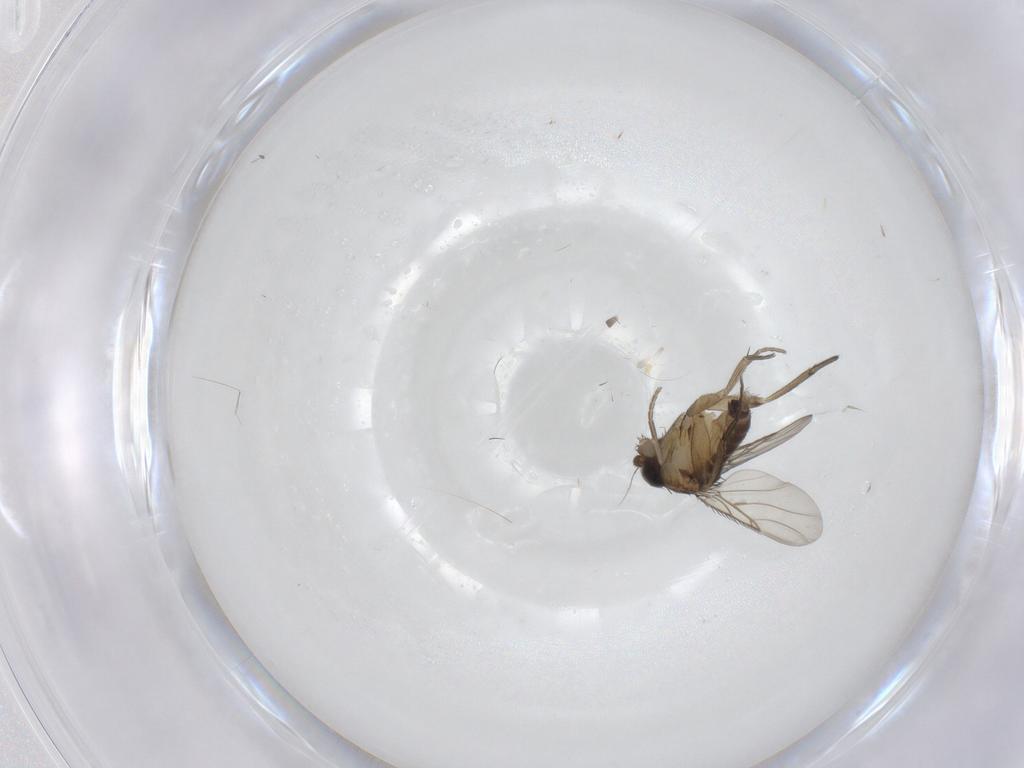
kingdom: Animalia
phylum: Arthropoda
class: Insecta
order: Diptera
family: Phoridae
